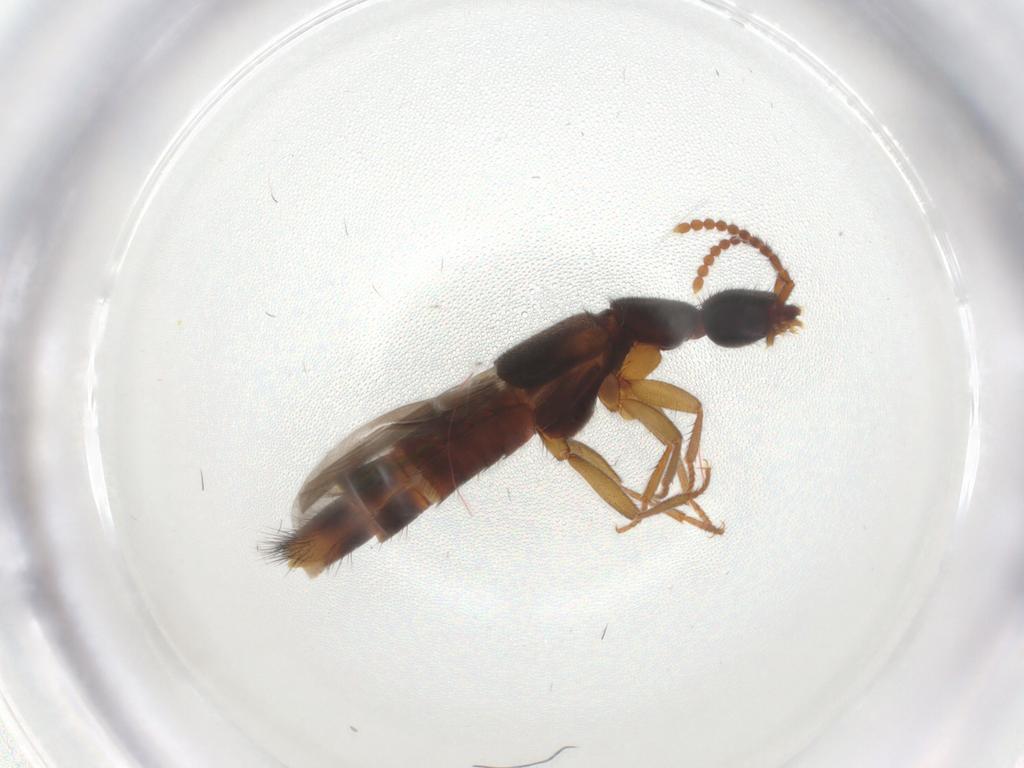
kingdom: Animalia
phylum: Arthropoda
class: Insecta
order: Coleoptera
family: Staphylinidae
